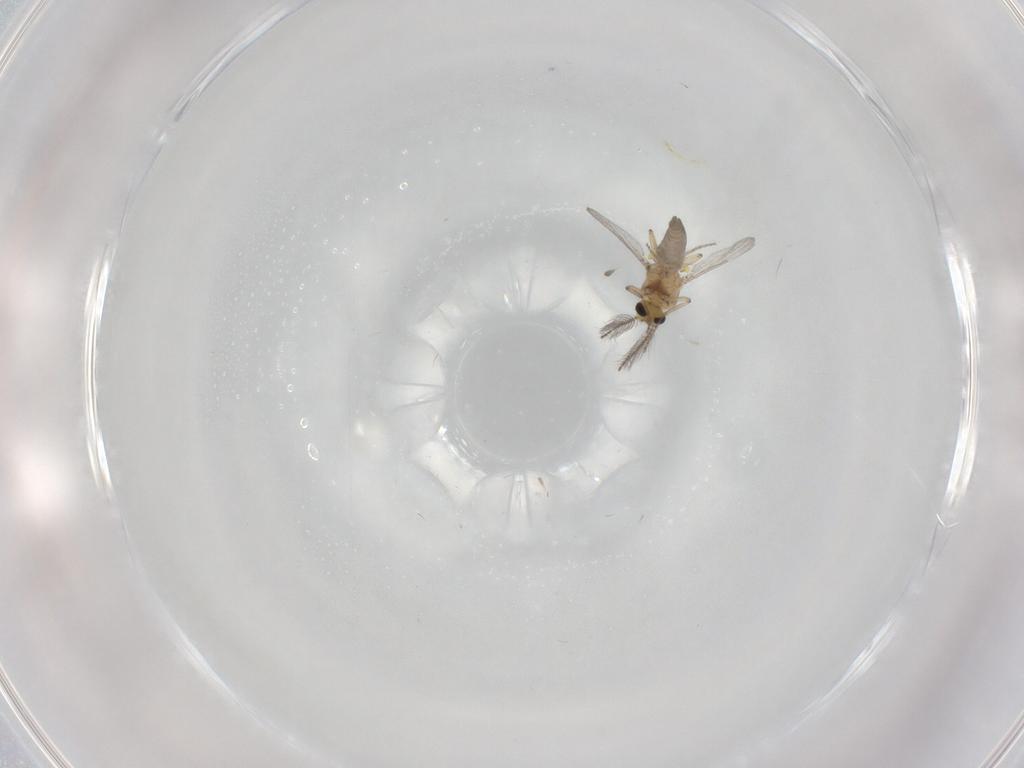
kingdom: Animalia
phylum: Arthropoda
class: Insecta
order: Diptera
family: Ceratopogonidae
